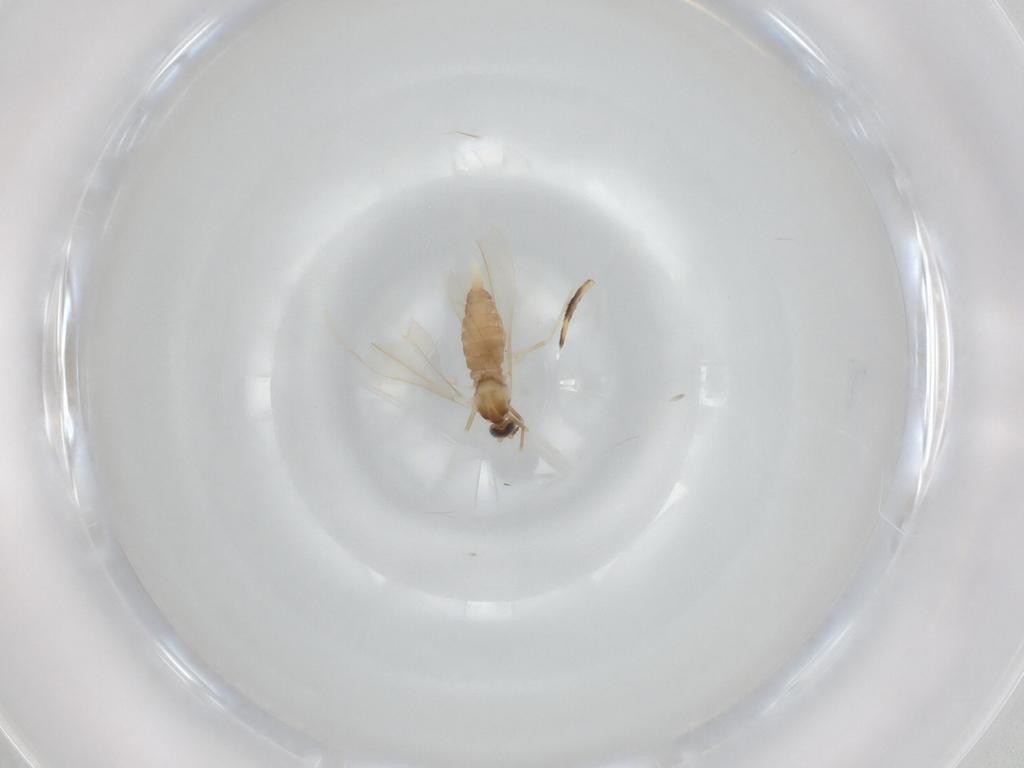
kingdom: Animalia
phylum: Arthropoda
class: Insecta
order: Diptera
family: Cecidomyiidae
